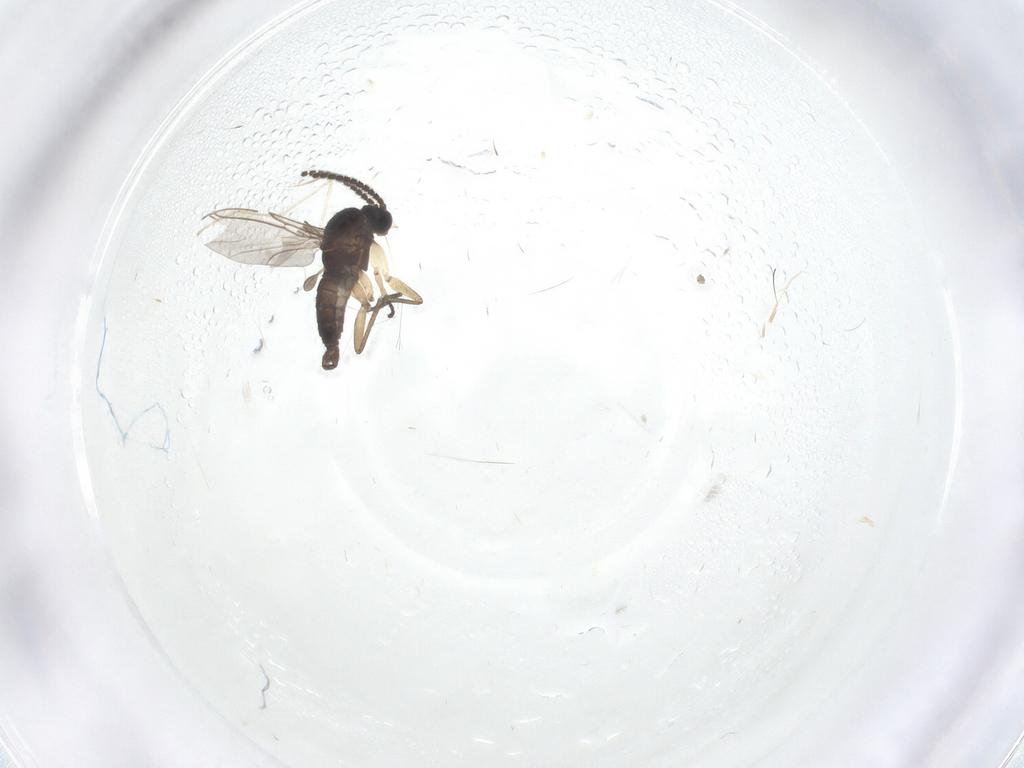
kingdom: Animalia
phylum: Arthropoda
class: Insecta
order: Diptera
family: Sciaridae
